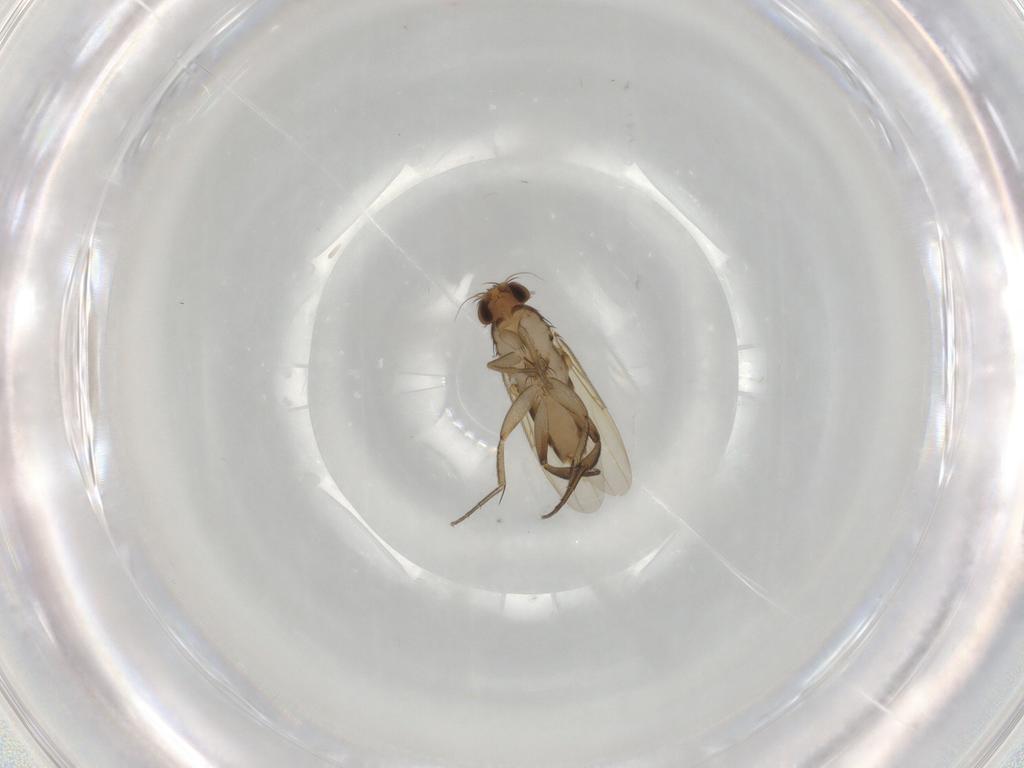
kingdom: Animalia
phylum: Arthropoda
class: Insecta
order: Diptera
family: Phoridae
